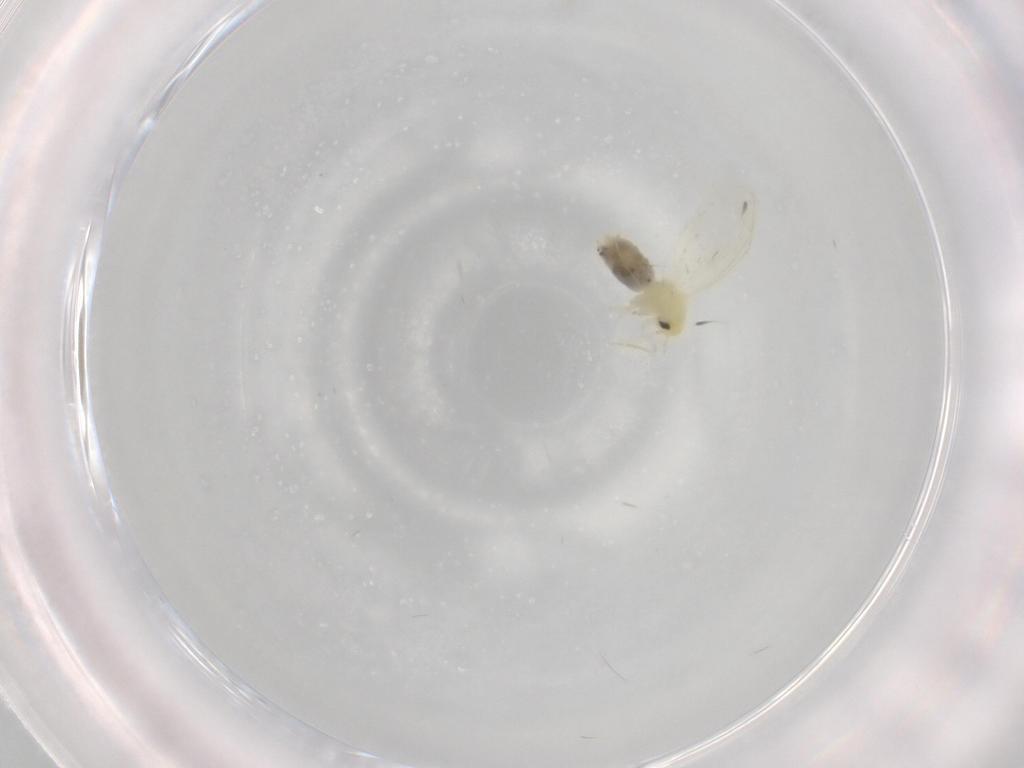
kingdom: Animalia
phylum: Arthropoda
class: Insecta
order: Hemiptera
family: Aleyrodidae
